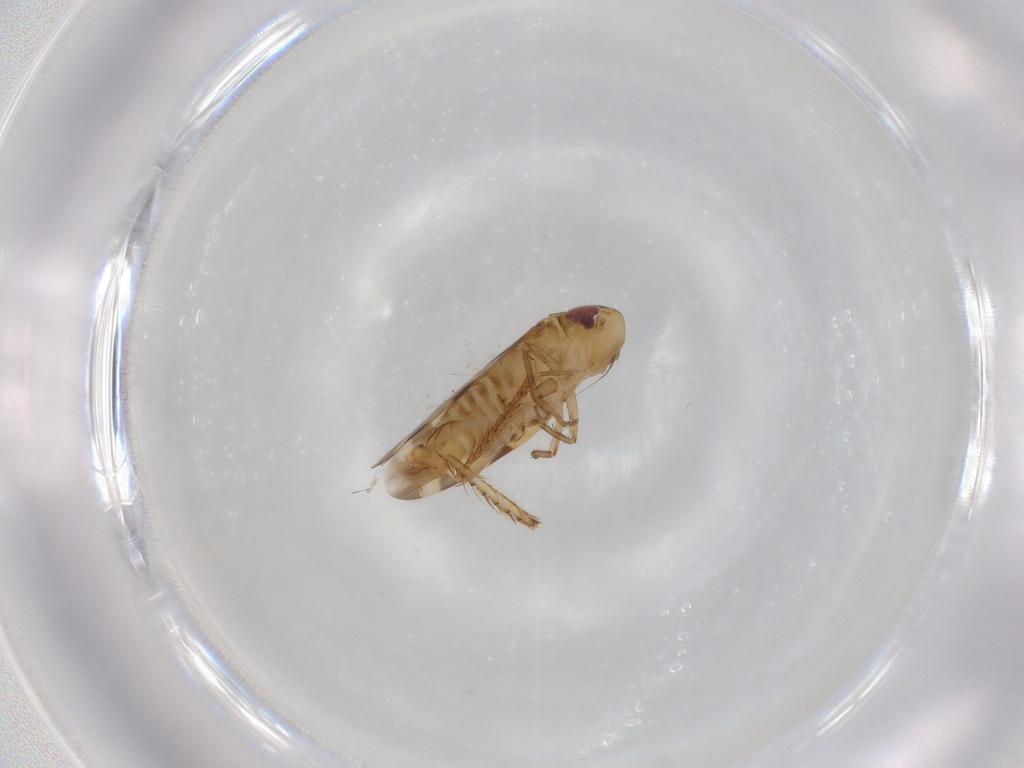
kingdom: Animalia
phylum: Arthropoda
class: Insecta
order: Hemiptera
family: Cicadellidae
